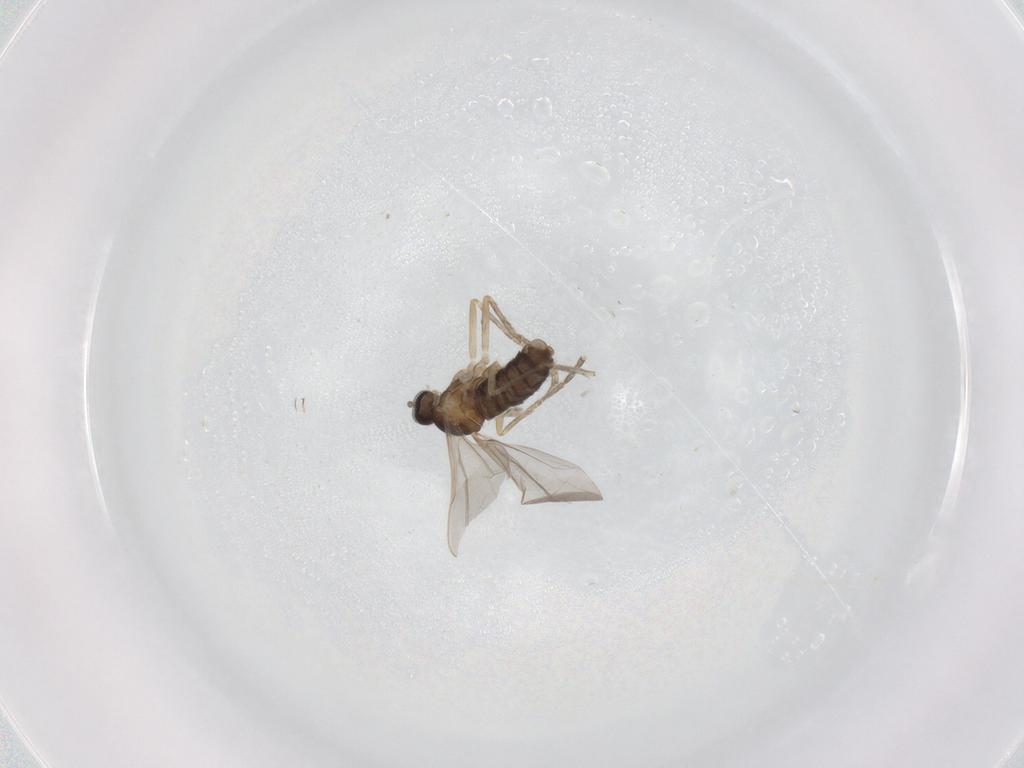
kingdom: Animalia
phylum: Arthropoda
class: Insecta
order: Diptera
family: Cecidomyiidae
